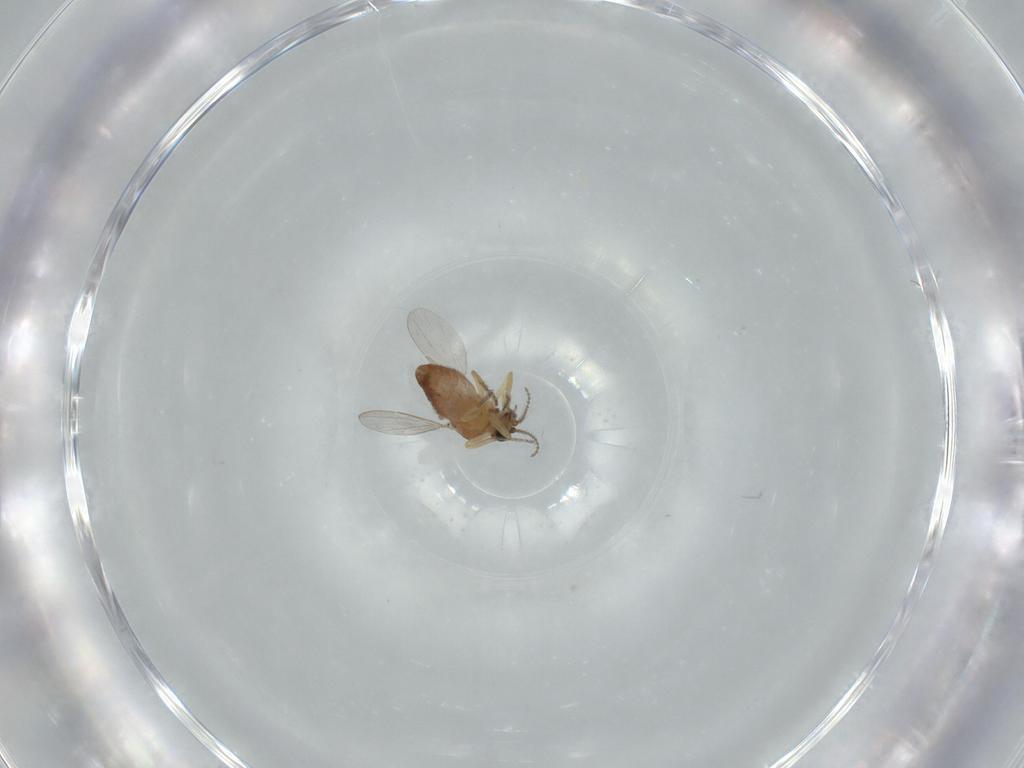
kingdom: Animalia
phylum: Arthropoda
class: Insecta
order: Diptera
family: Ceratopogonidae
